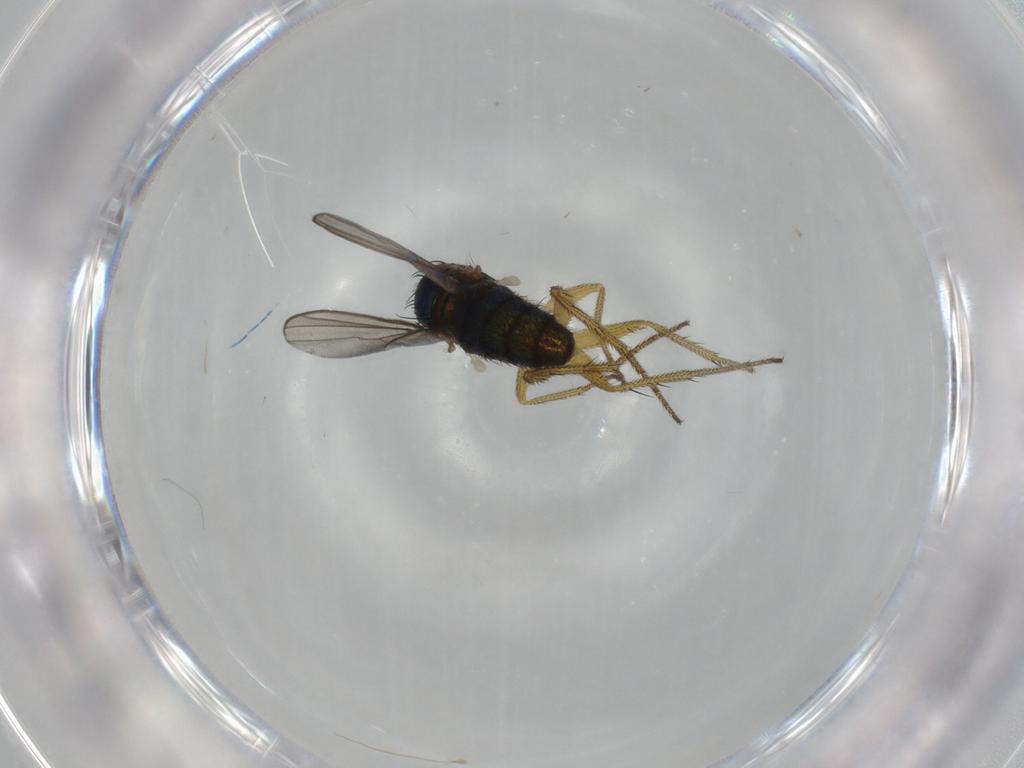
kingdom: Animalia
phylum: Arthropoda
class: Insecta
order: Diptera
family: Dolichopodidae
